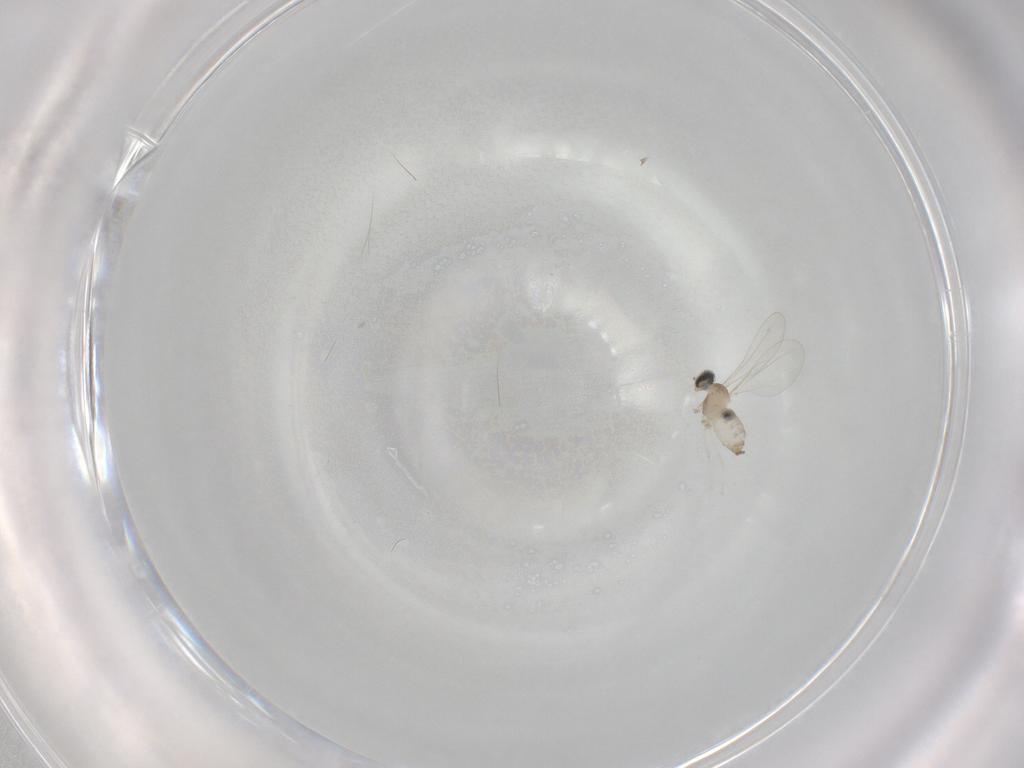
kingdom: Animalia
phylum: Arthropoda
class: Insecta
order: Diptera
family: Cecidomyiidae
